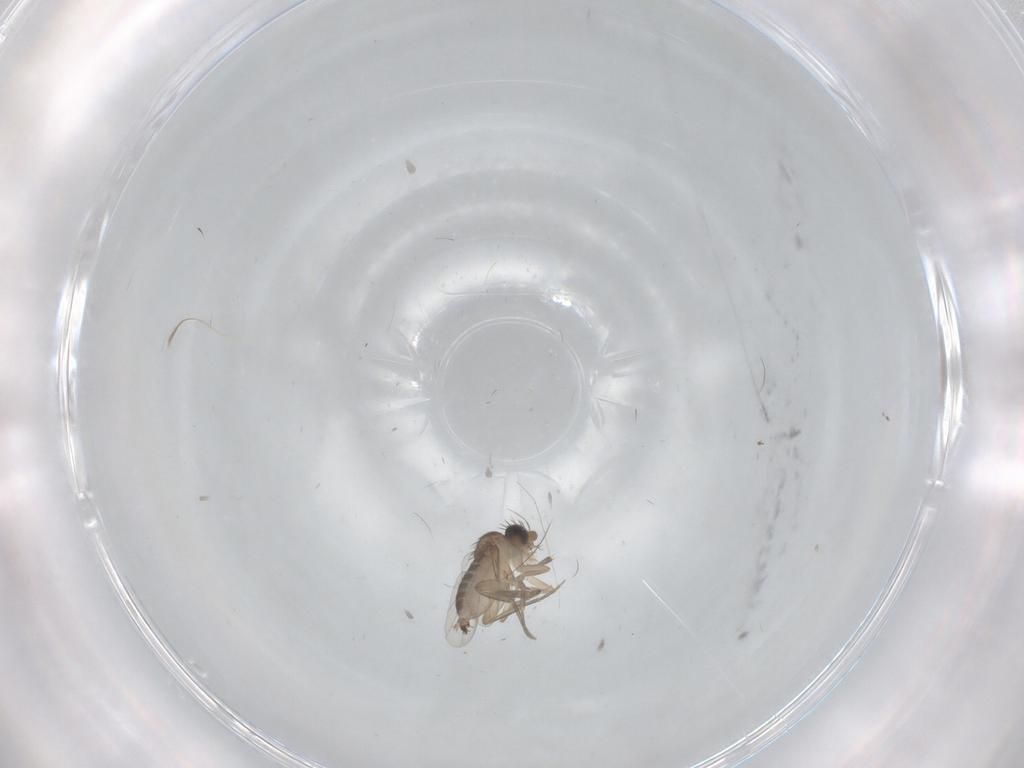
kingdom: Animalia
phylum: Arthropoda
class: Insecta
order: Diptera
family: Phoridae
